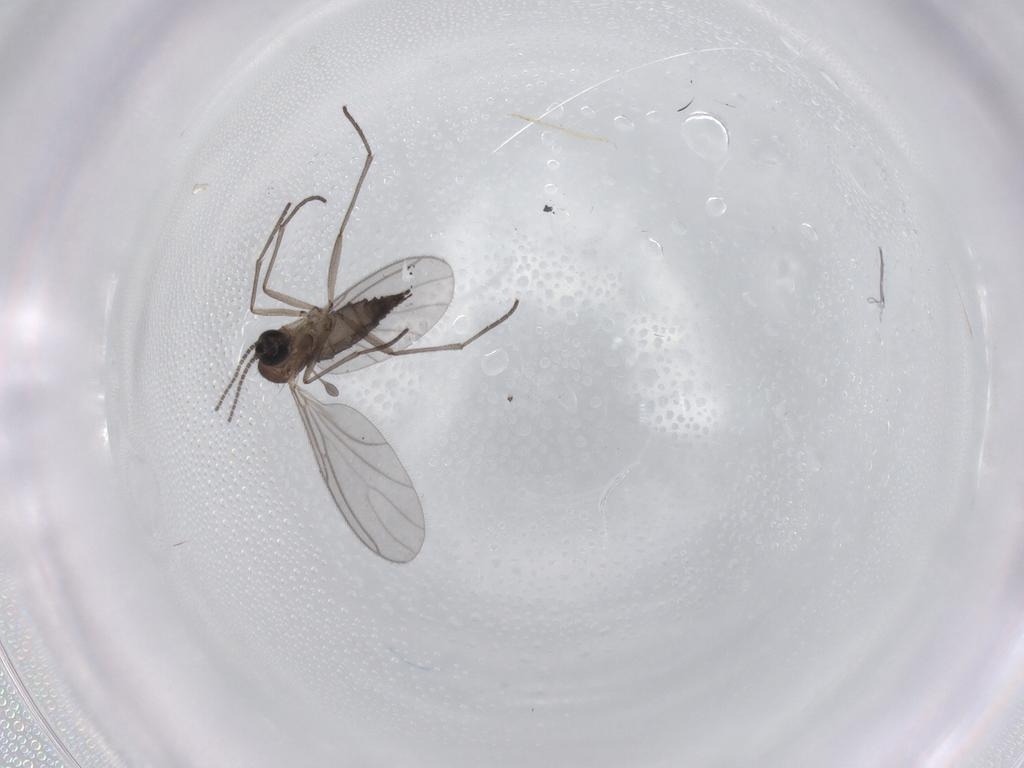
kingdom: Animalia
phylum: Arthropoda
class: Insecta
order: Diptera
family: Sciaridae
